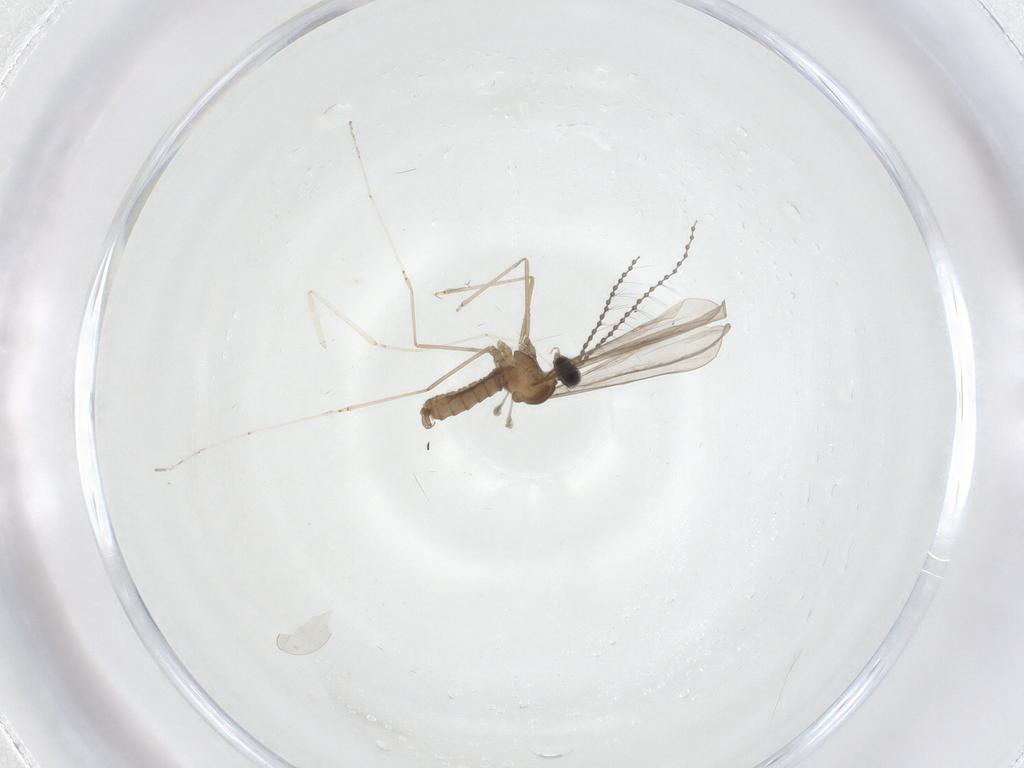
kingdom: Animalia
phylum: Arthropoda
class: Insecta
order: Diptera
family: Cecidomyiidae
